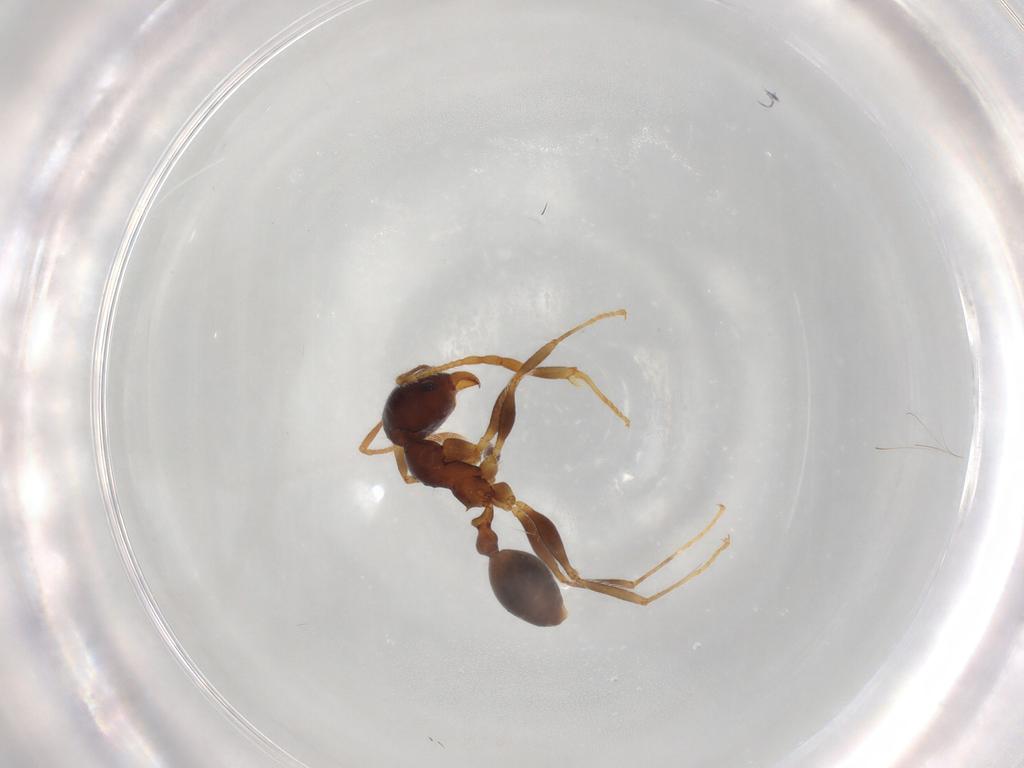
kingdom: Animalia
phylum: Arthropoda
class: Insecta
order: Hymenoptera
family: Formicidae
